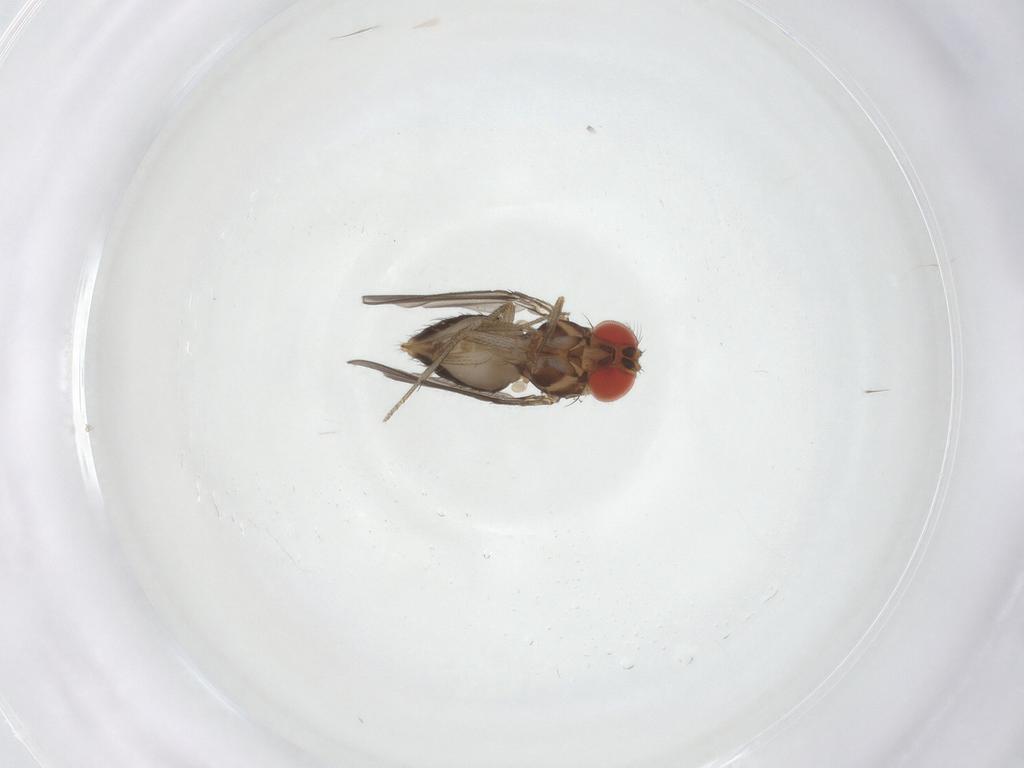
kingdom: Animalia
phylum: Arthropoda
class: Insecta
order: Diptera
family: Drosophilidae
